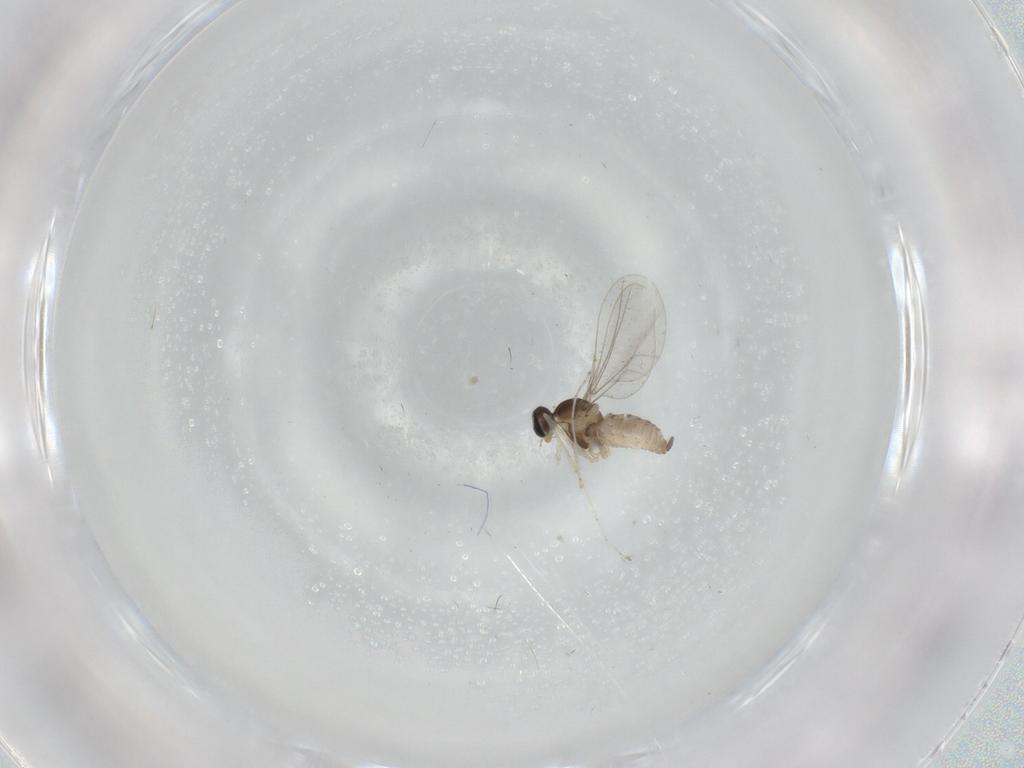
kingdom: Animalia
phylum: Arthropoda
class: Insecta
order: Diptera
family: Cecidomyiidae
